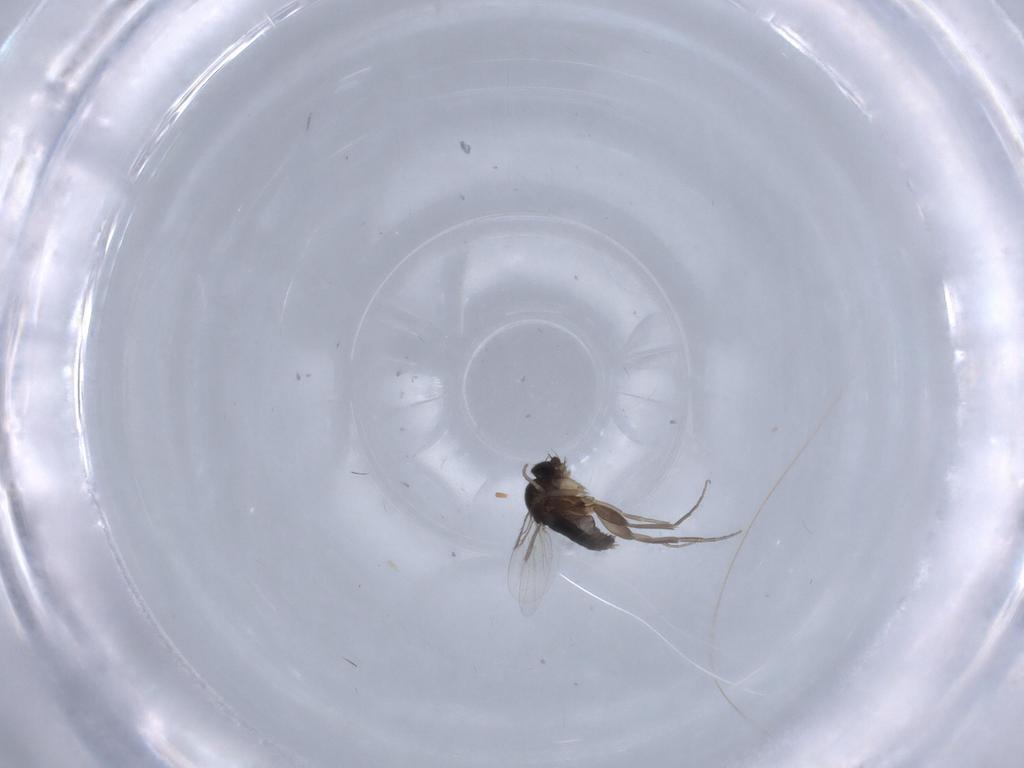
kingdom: Animalia
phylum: Arthropoda
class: Insecta
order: Diptera
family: Phoridae
